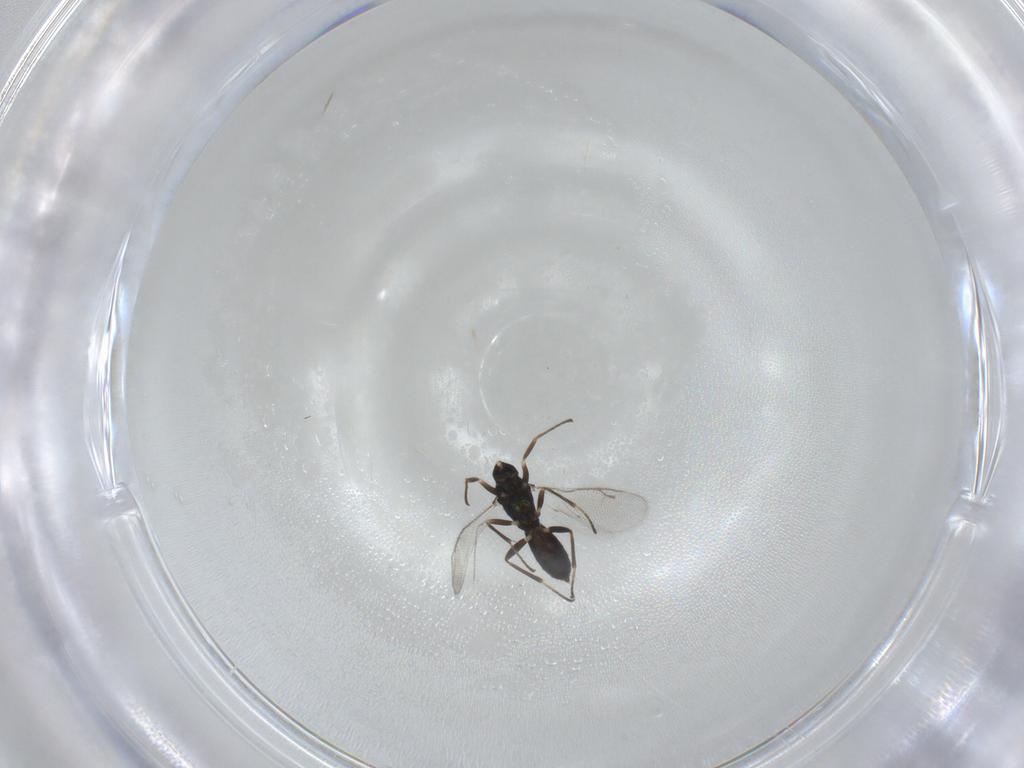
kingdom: Animalia
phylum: Arthropoda
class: Insecta
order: Hymenoptera
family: Eupelmidae
